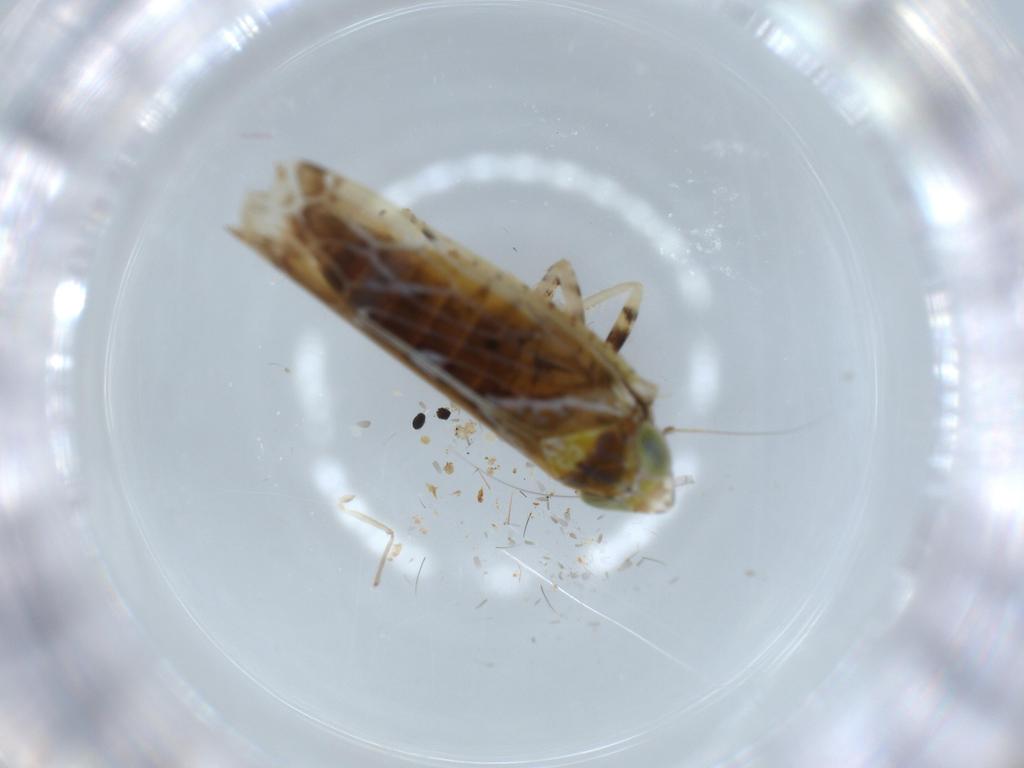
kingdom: Animalia
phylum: Arthropoda
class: Insecta
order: Hemiptera
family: Cicadellidae
